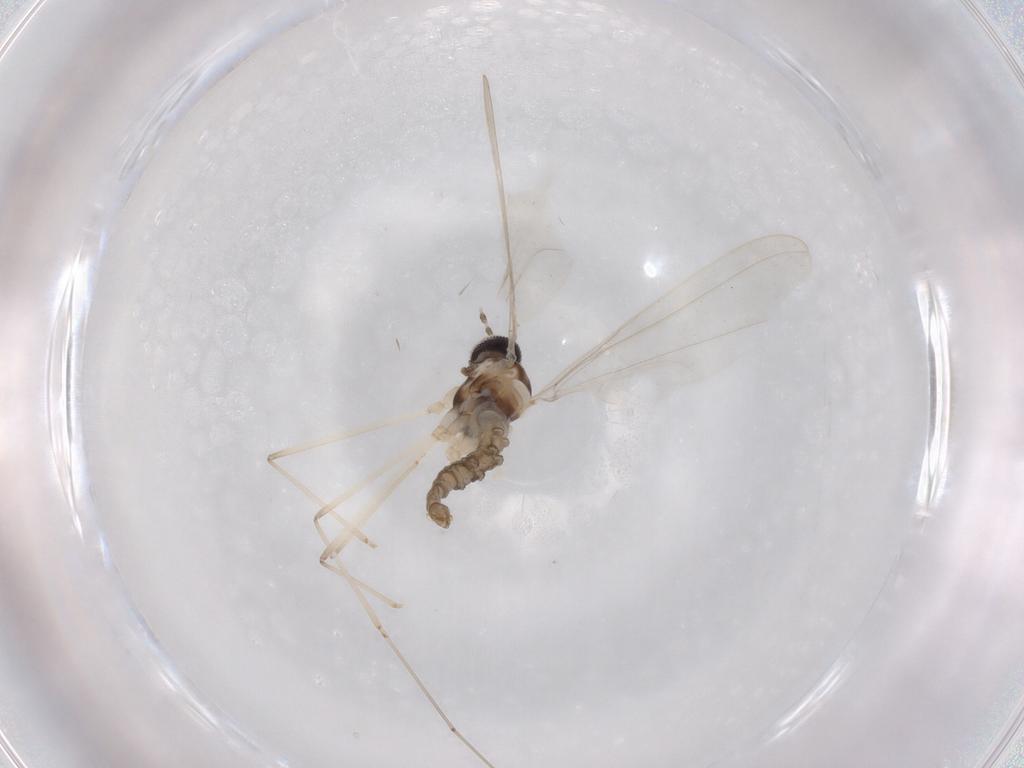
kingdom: Animalia
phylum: Arthropoda
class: Insecta
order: Diptera
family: Cecidomyiidae
